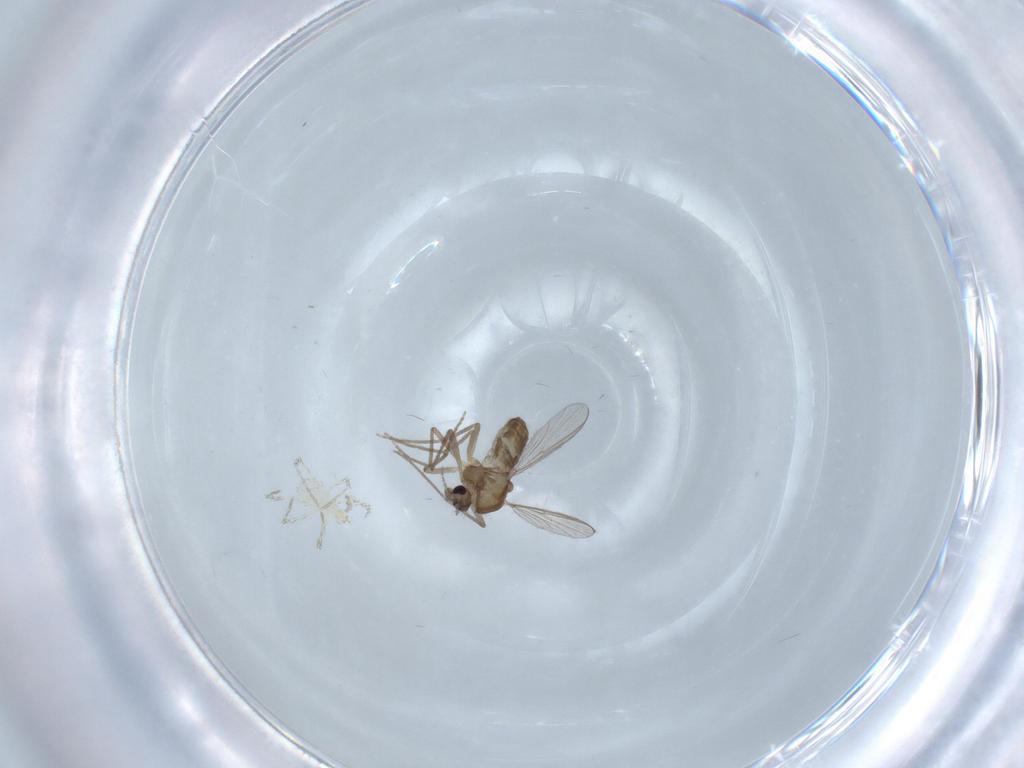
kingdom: Animalia
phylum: Arthropoda
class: Insecta
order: Diptera
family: Chironomidae
